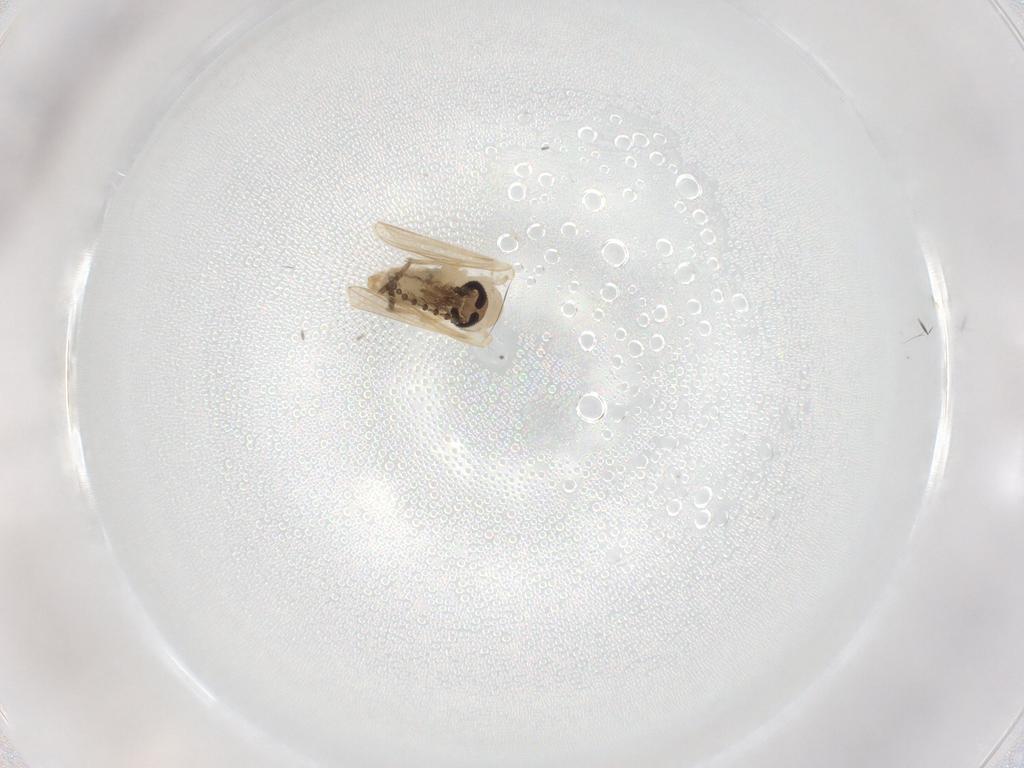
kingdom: Animalia
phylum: Arthropoda
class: Insecta
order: Diptera
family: Psychodidae
